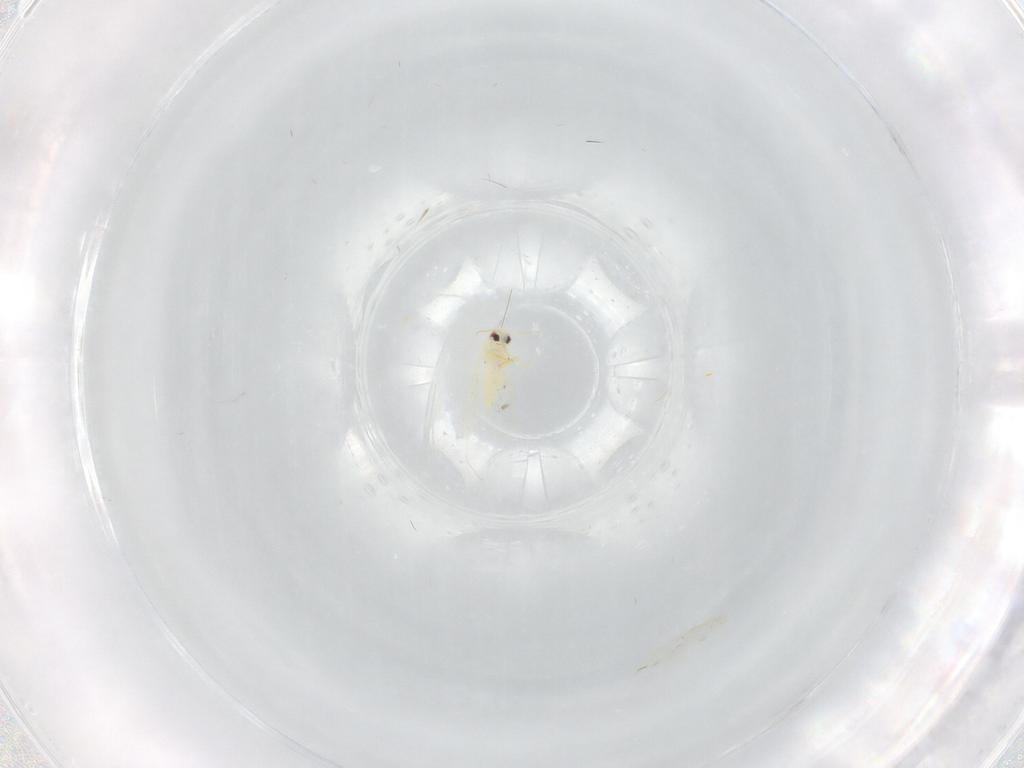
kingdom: Animalia
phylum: Arthropoda
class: Insecta
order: Hemiptera
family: Aleyrodidae
